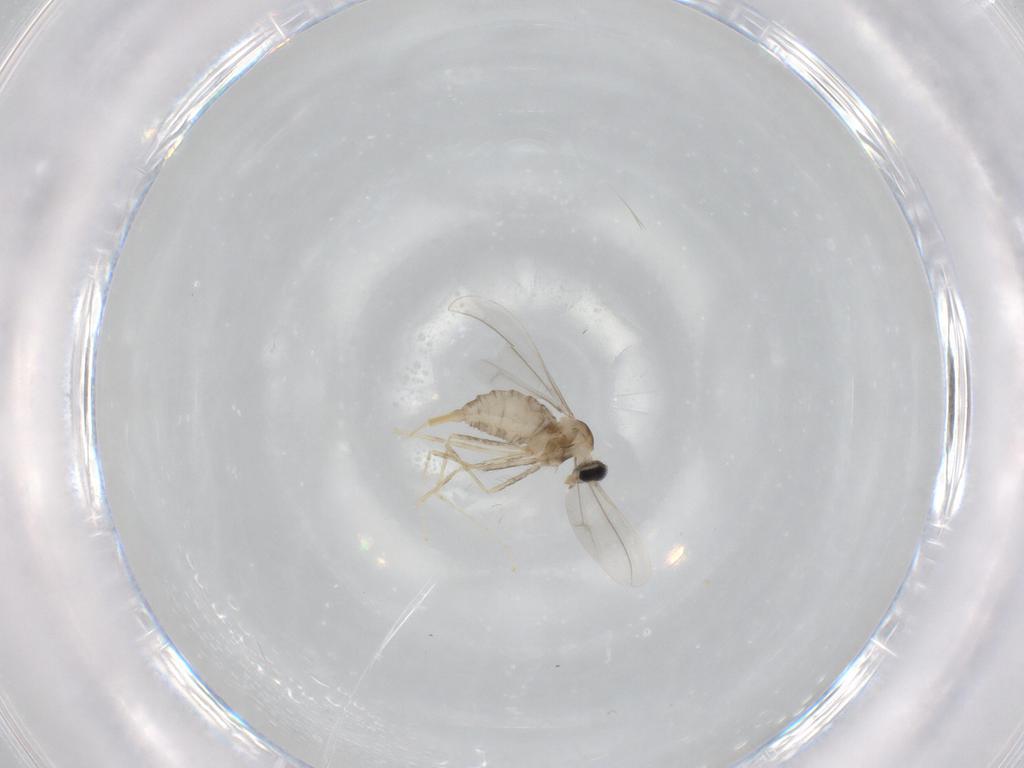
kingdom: Animalia
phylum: Arthropoda
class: Insecta
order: Diptera
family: Cecidomyiidae
